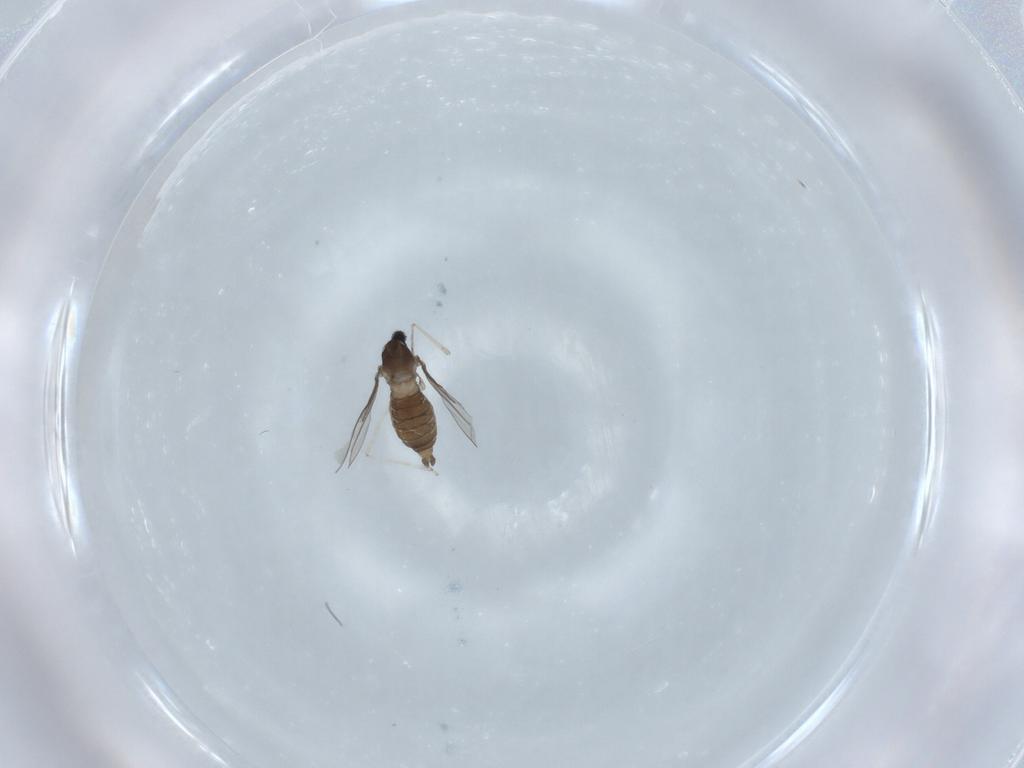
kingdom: Animalia
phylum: Arthropoda
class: Insecta
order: Diptera
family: Cecidomyiidae
